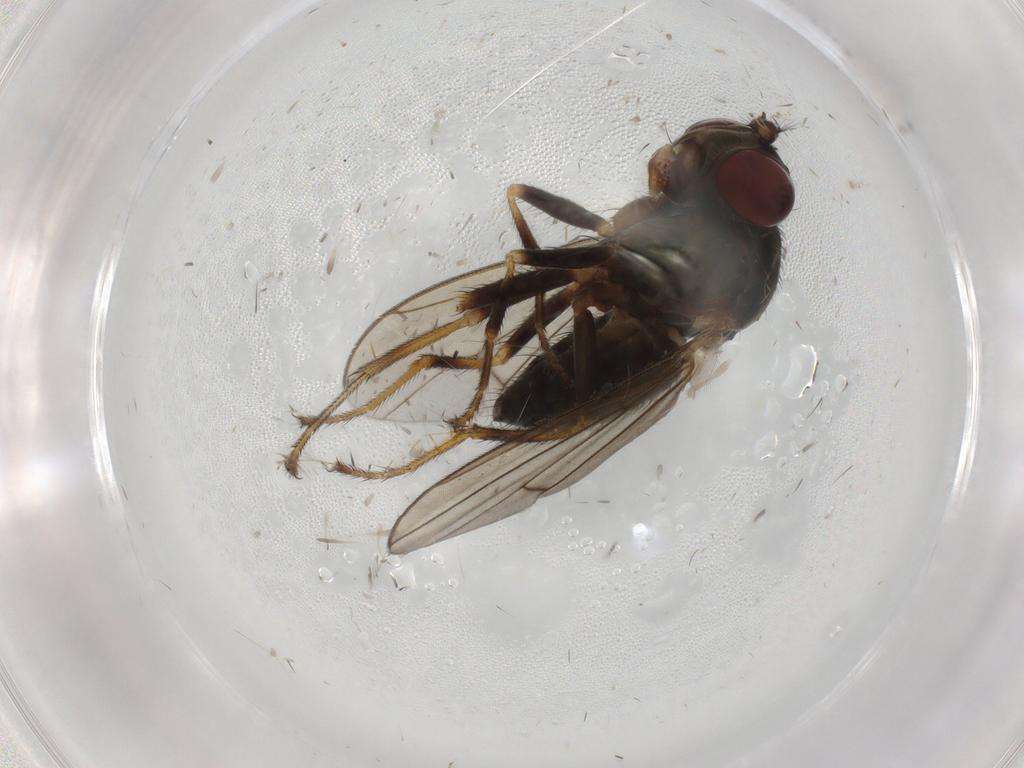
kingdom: Animalia
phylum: Arthropoda
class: Insecta
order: Diptera
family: Ephydridae
